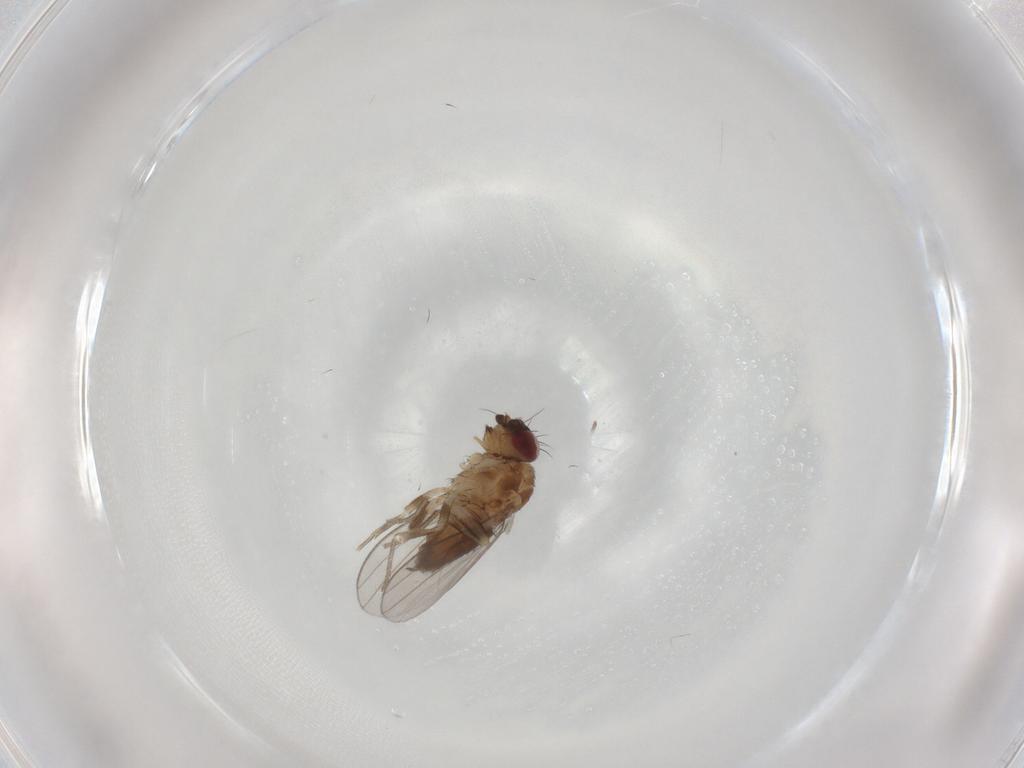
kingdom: Animalia
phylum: Arthropoda
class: Insecta
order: Diptera
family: Milichiidae
